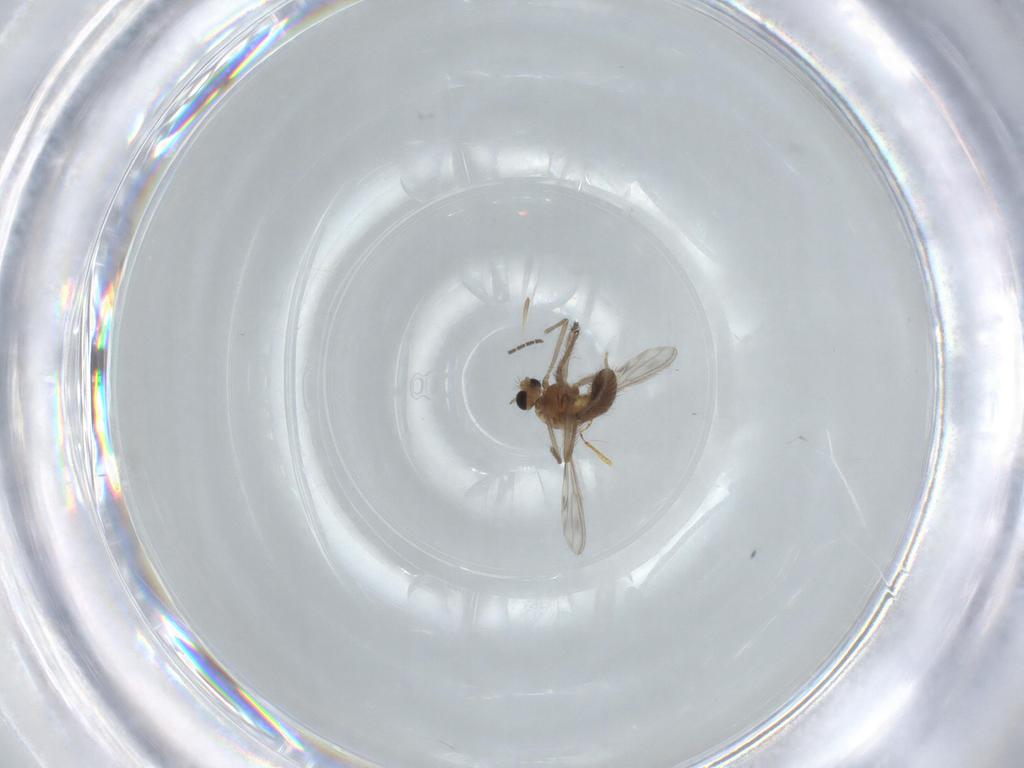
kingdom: Animalia
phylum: Arthropoda
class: Insecta
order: Diptera
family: Chironomidae
